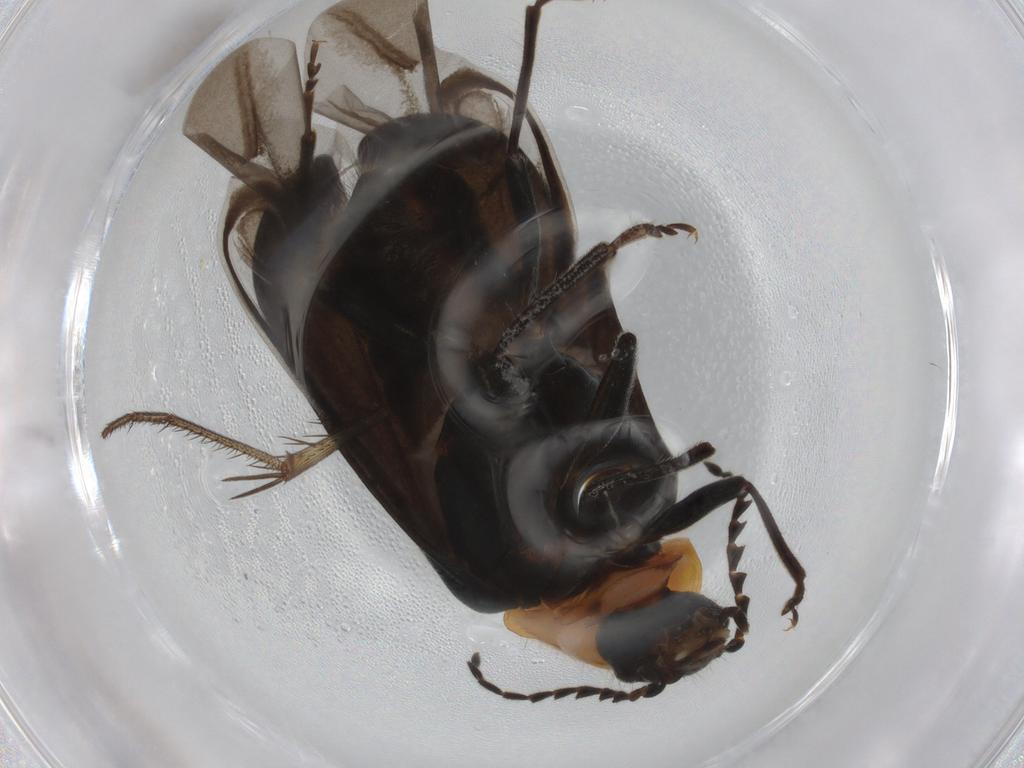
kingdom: Animalia
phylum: Arthropoda
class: Insecta
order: Coleoptera
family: Melyridae
